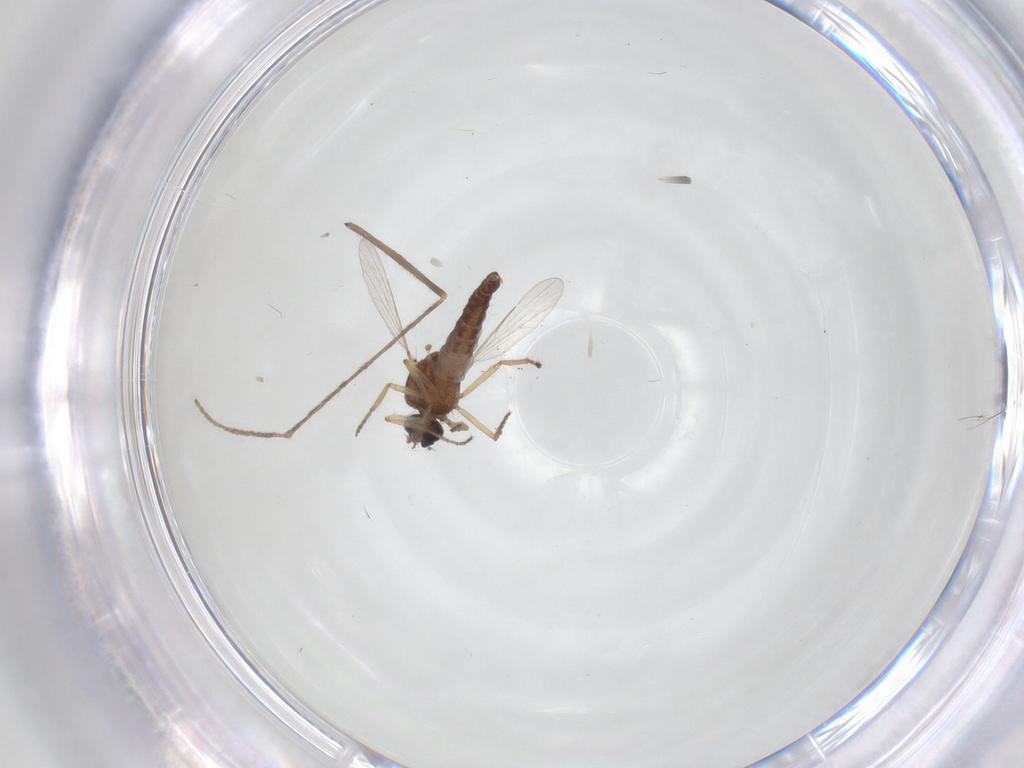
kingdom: Animalia
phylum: Arthropoda
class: Insecta
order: Diptera
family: Ceratopogonidae
